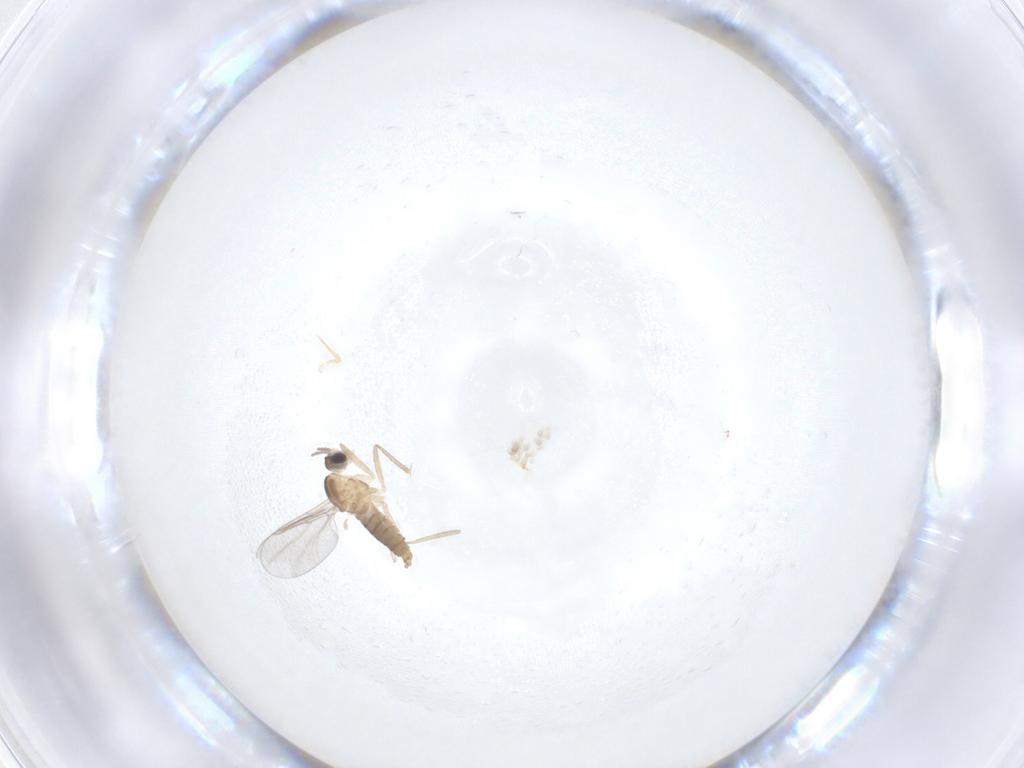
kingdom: Animalia
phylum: Arthropoda
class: Insecta
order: Diptera
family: Cecidomyiidae
